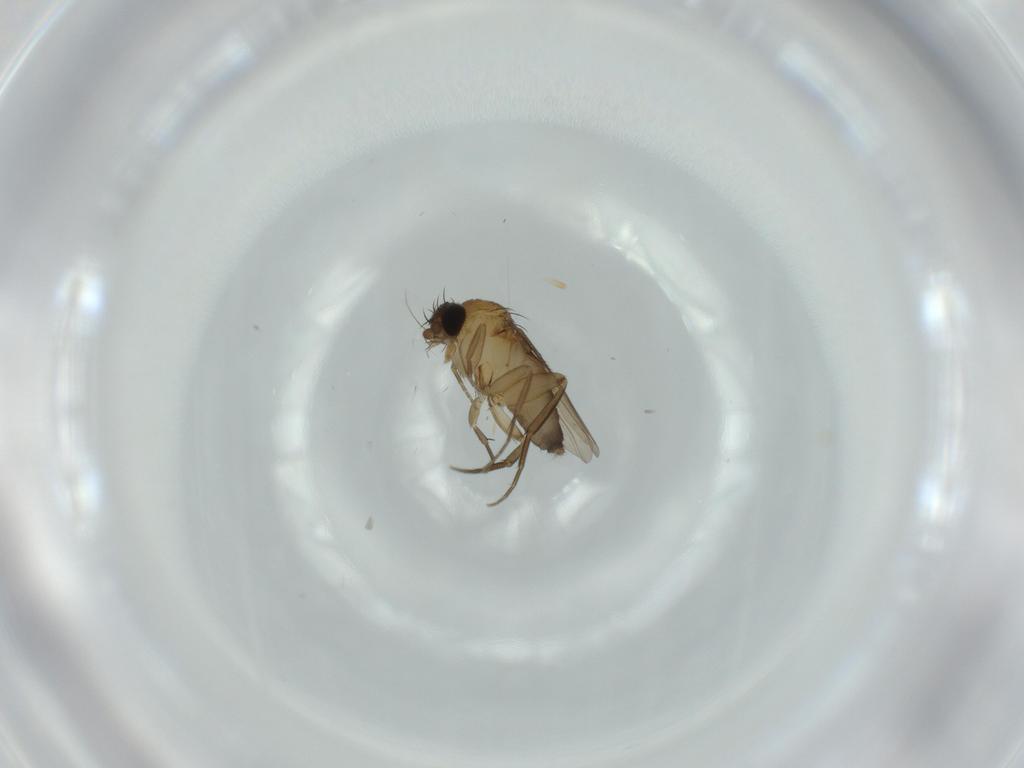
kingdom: Animalia
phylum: Arthropoda
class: Insecta
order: Diptera
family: Phoridae
